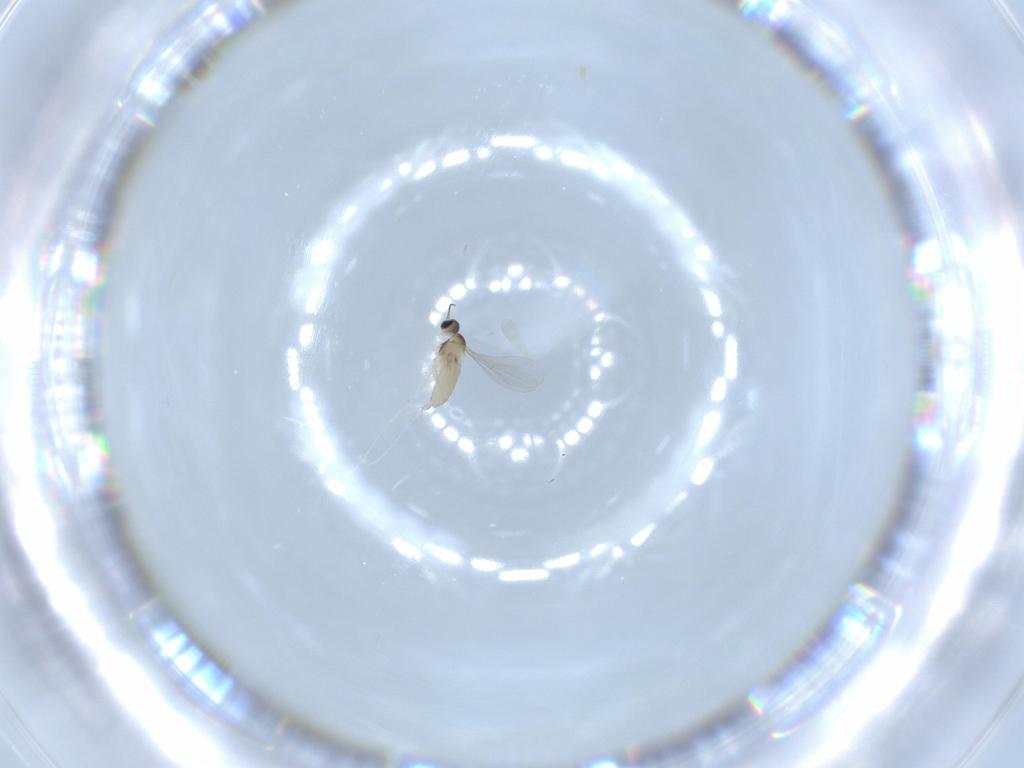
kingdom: Animalia
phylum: Arthropoda
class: Insecta
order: Diptera
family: Phoridae
